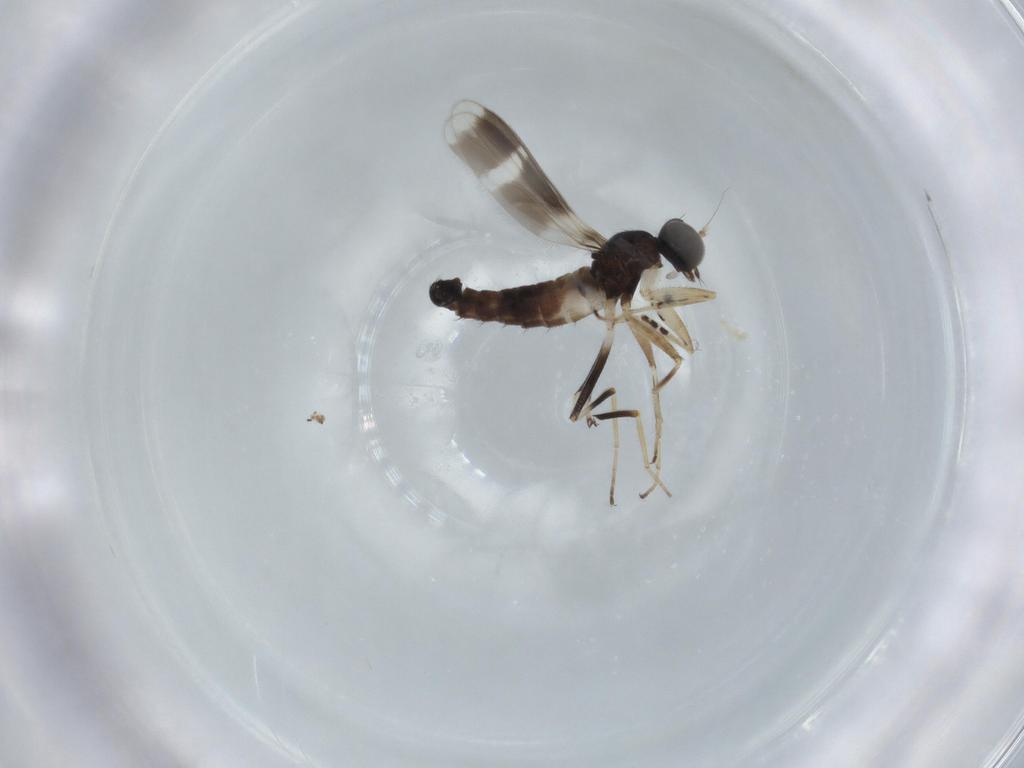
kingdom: Animalia
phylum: Arthropoda
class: Insecta
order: Diptera
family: Hybotidae
